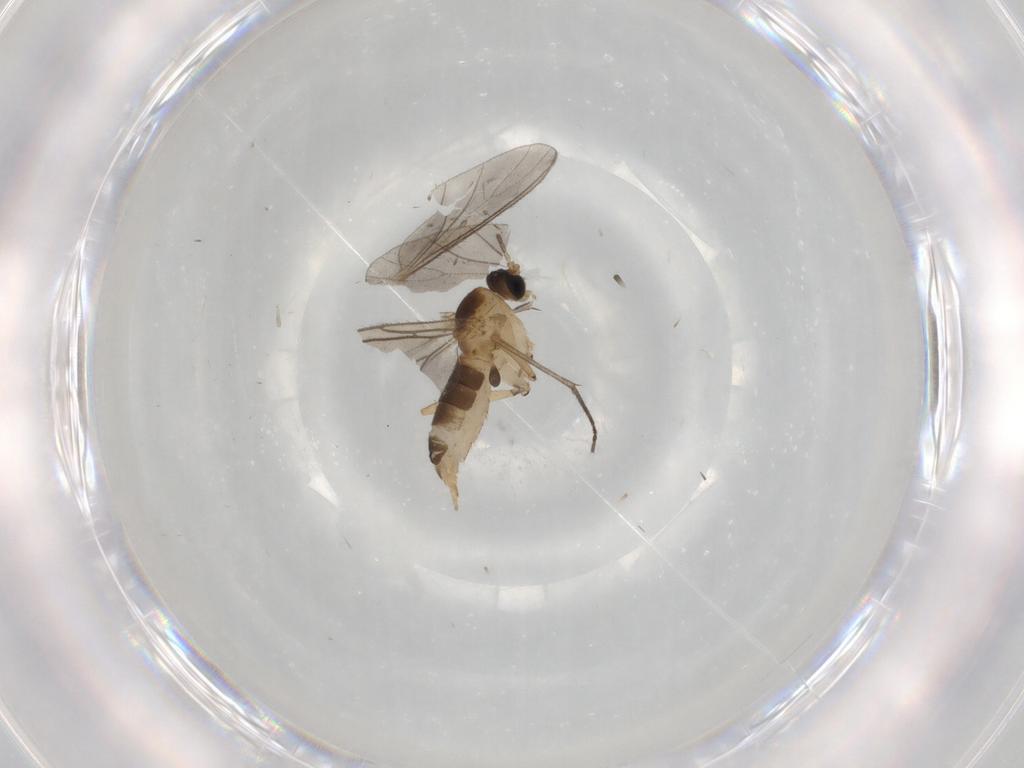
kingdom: Animalia
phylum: Arthropoda
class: Insecta
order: Diptera
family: Sciaridae
